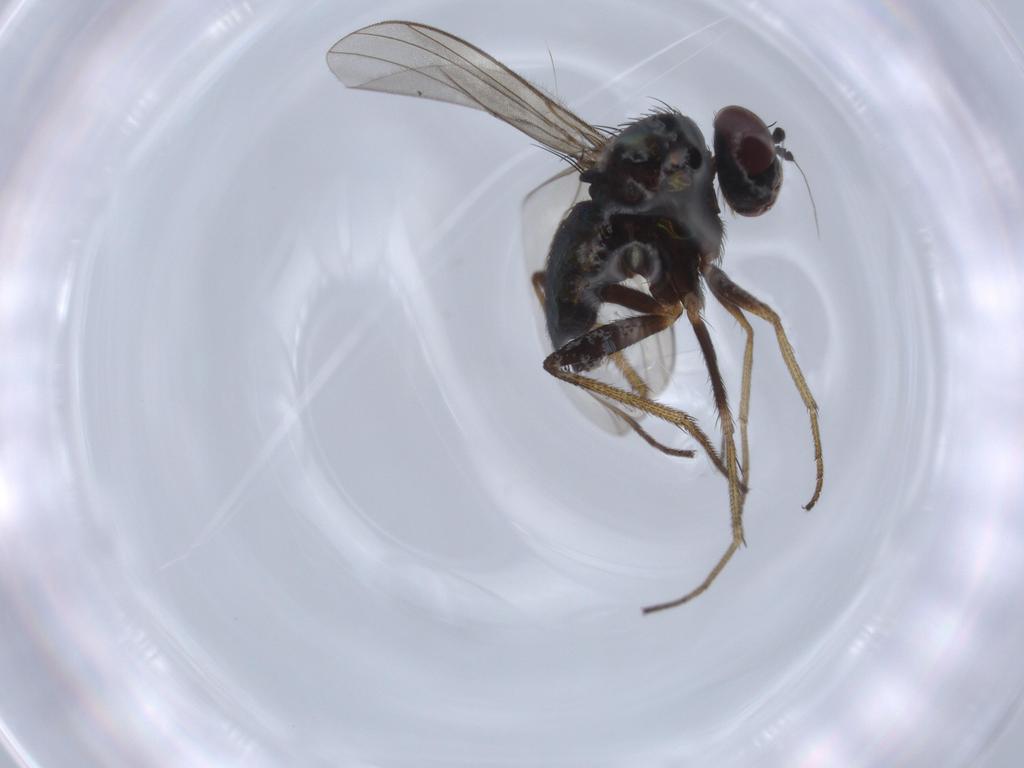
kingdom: Animalia
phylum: Arthropoda
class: Insecta
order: Diptera
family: Dolichopodidae
